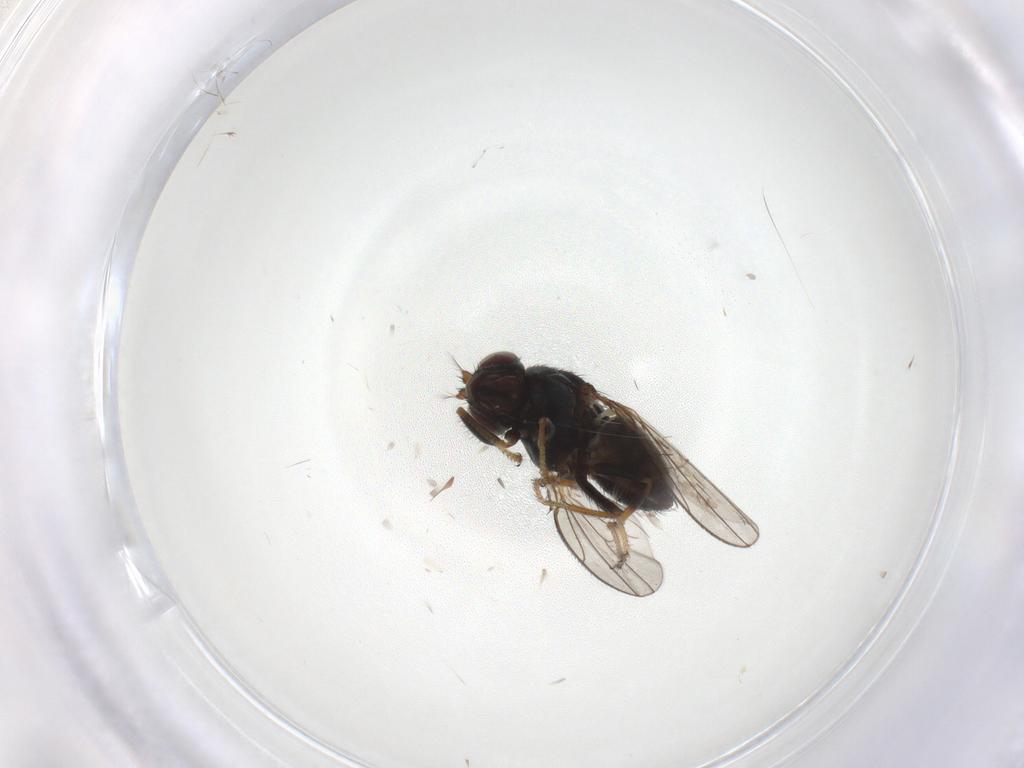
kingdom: Animalia
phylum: Arthropoda
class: Insecta
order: Diptera
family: Ephydridae
